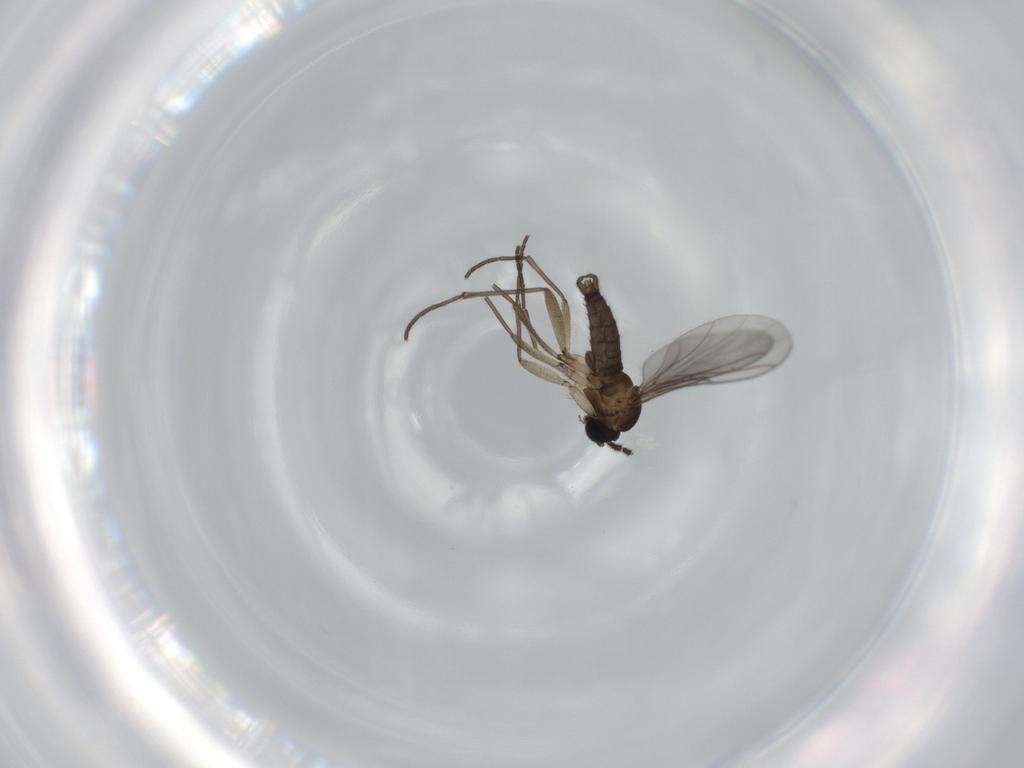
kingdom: Animalia
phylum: Arthropoda
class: Insecta
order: Diptera
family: Sciaridae
